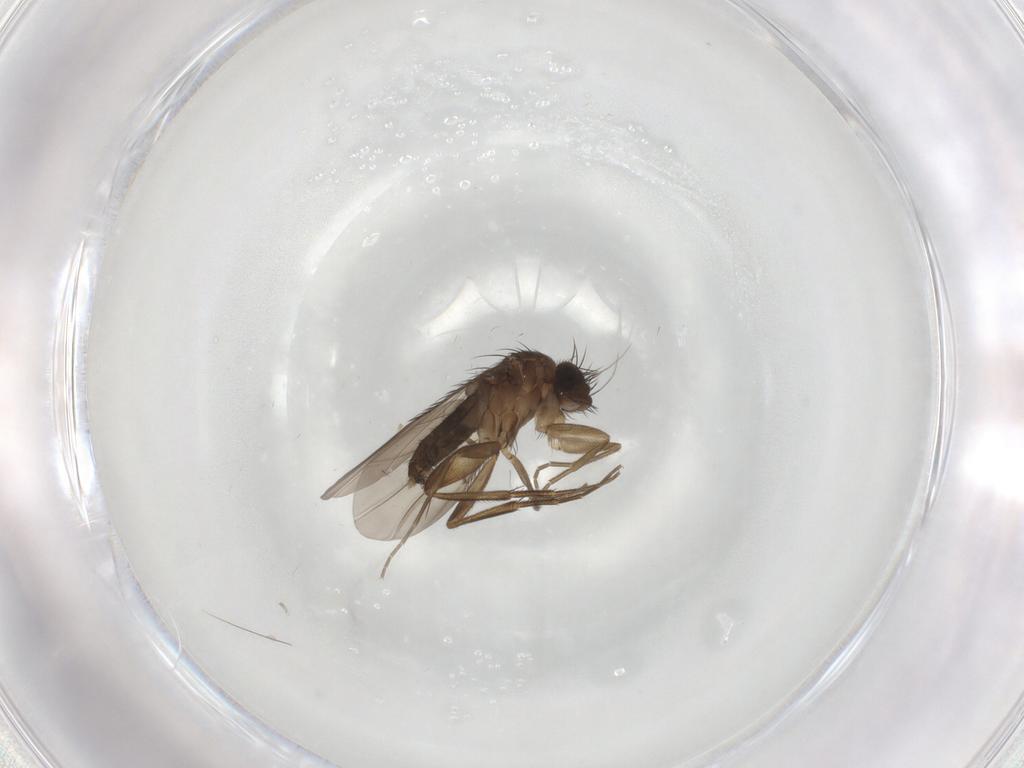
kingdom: Animalia
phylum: Arthropoda
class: Insecta
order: Diptera
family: Phoridae
